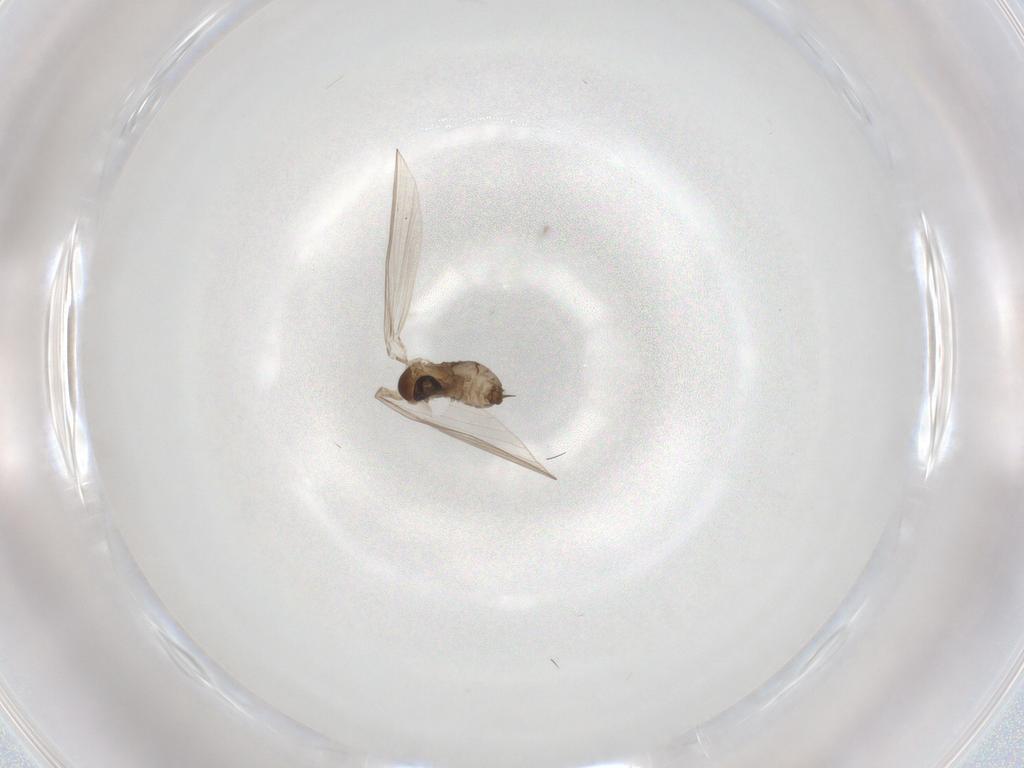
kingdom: Animalia
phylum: Arthropoda
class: Insecta
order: Diptera
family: Psychodidae
